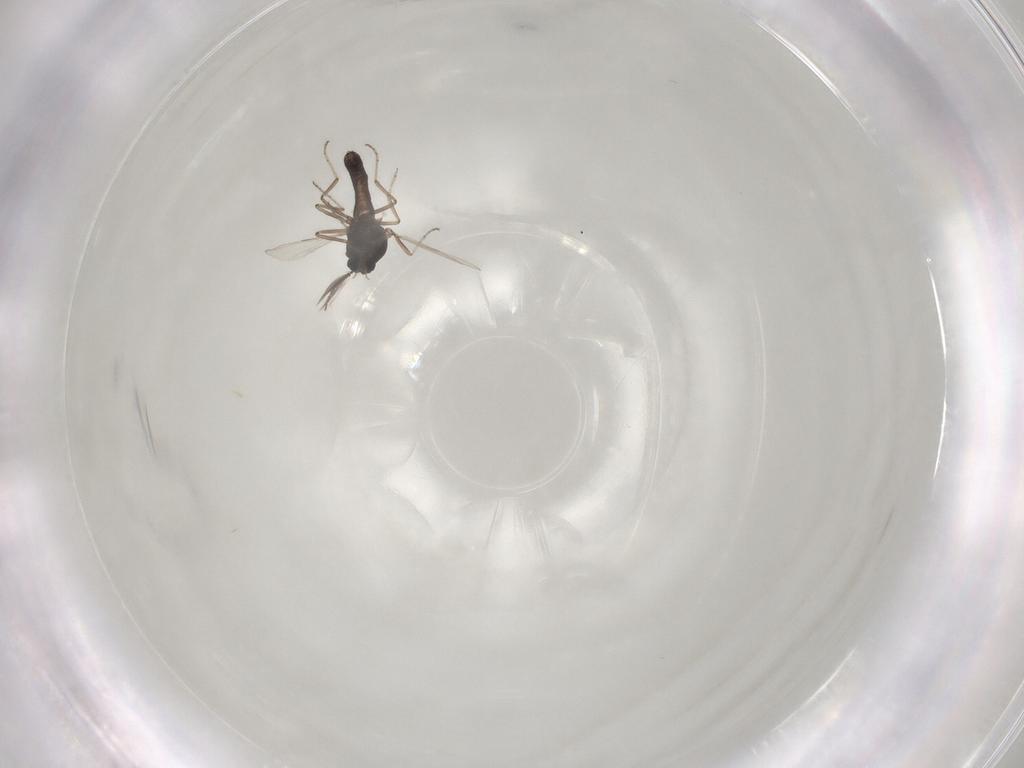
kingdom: Animalia
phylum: Arthropoda
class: Insecta
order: Diptera
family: Ceratopogonidae
